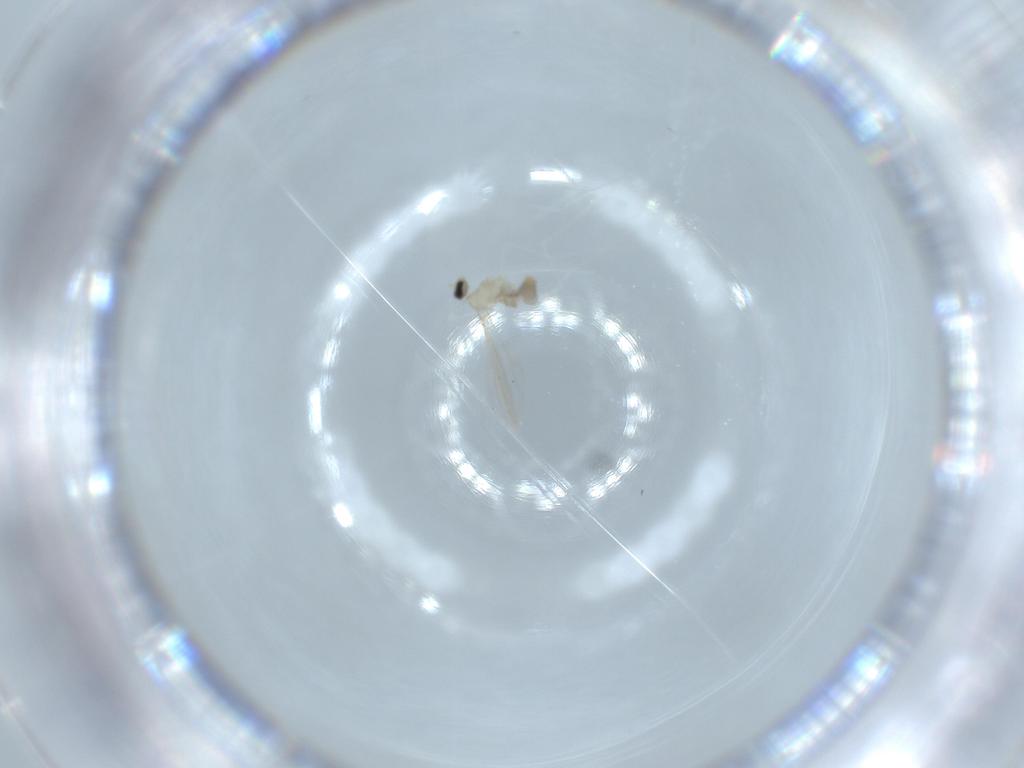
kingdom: Animalia
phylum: Arthropoda
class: Insecta
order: Diptera
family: Cecidomyiidae
